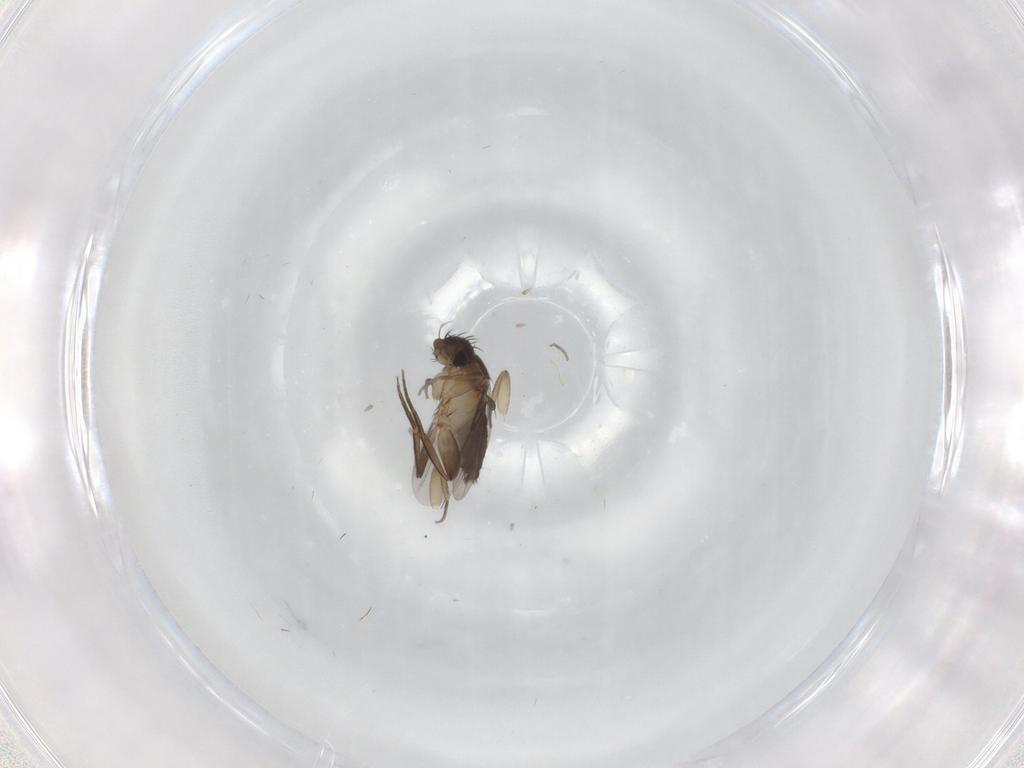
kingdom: Animalia
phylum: Arthropoda
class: Insecta
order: Diptera
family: Phoridae
